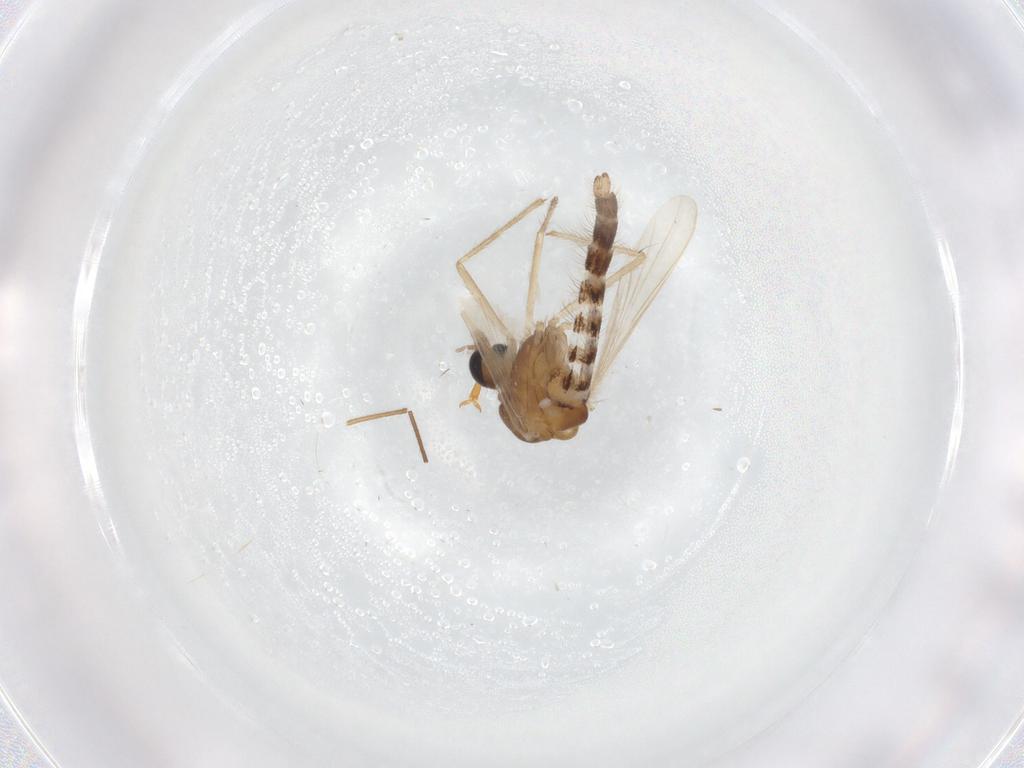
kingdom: Animalia
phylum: Arthropoda
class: Insecta
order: Diptera
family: Chironomidae
